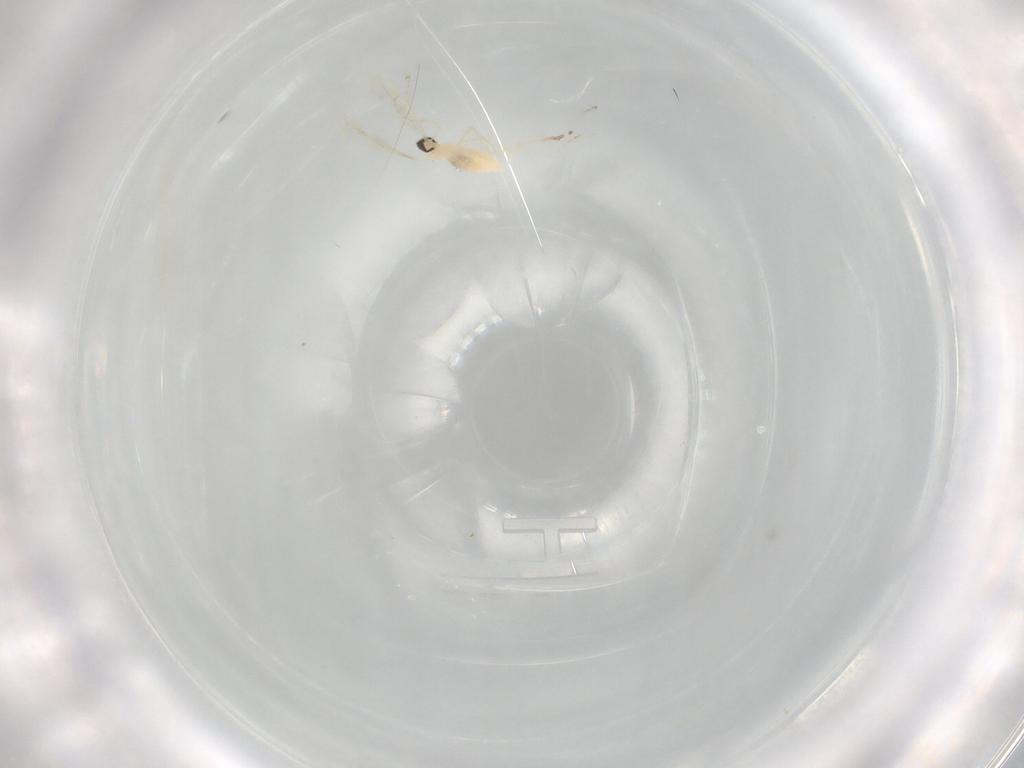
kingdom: Animalia
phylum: Arthropoda
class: Insecta
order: Diptera
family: Cecidomyiidae
